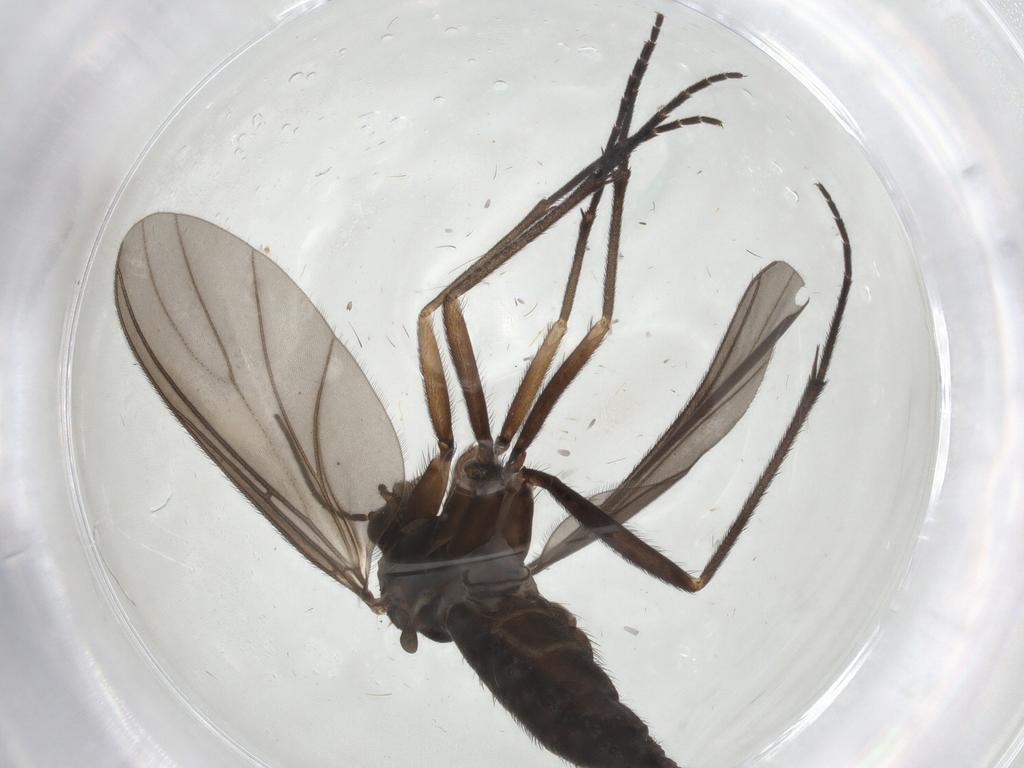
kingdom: Animalia
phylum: Arthropoda
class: Insecta
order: Diptera
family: Sciaridae
